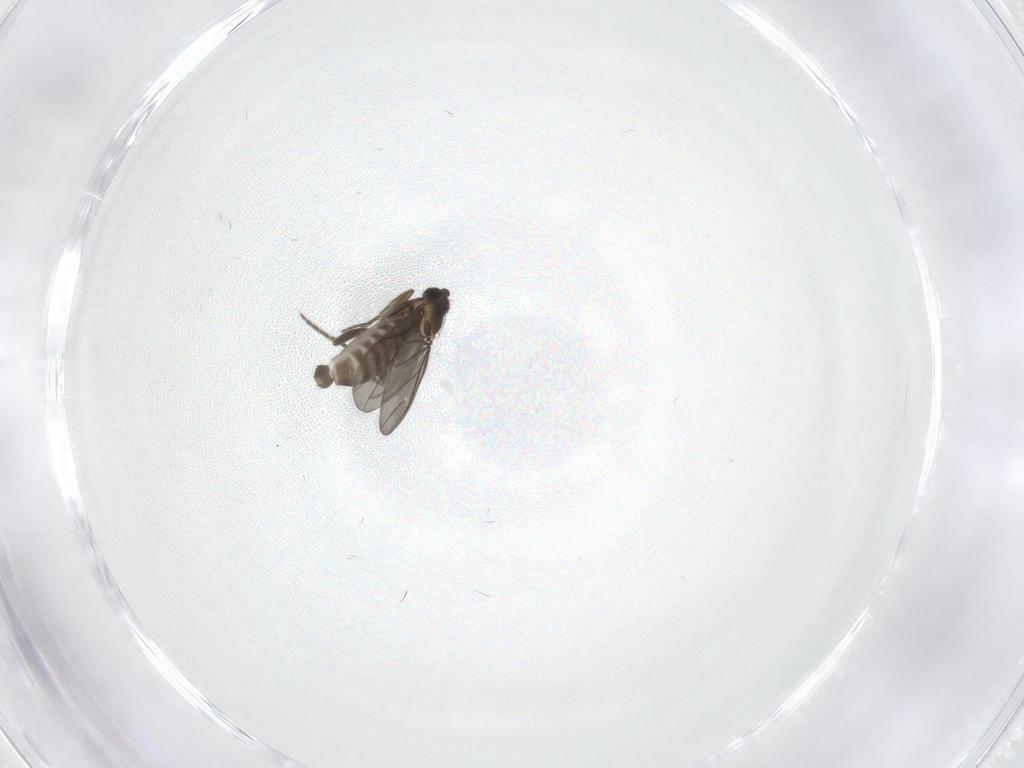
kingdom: Animalia
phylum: Arthropoda
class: Insecta
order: Diptera
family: Phoridae
